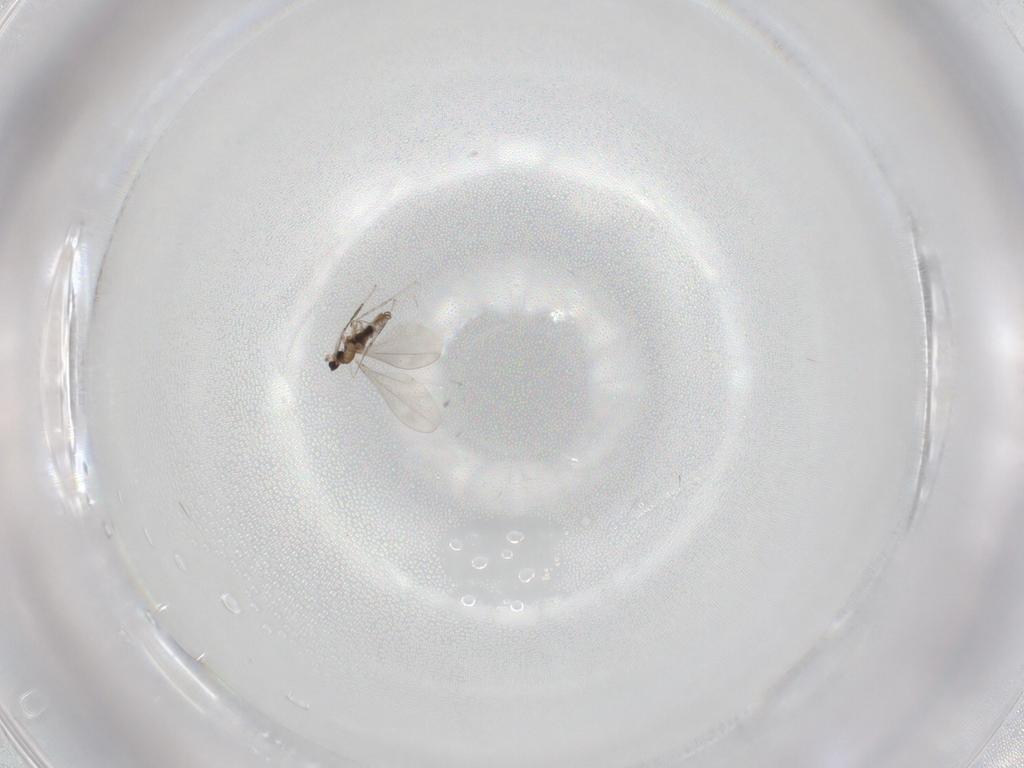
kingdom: Animalia
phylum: Arthropoda
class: Insecta
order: Diptera
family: Cecidomyiidae
